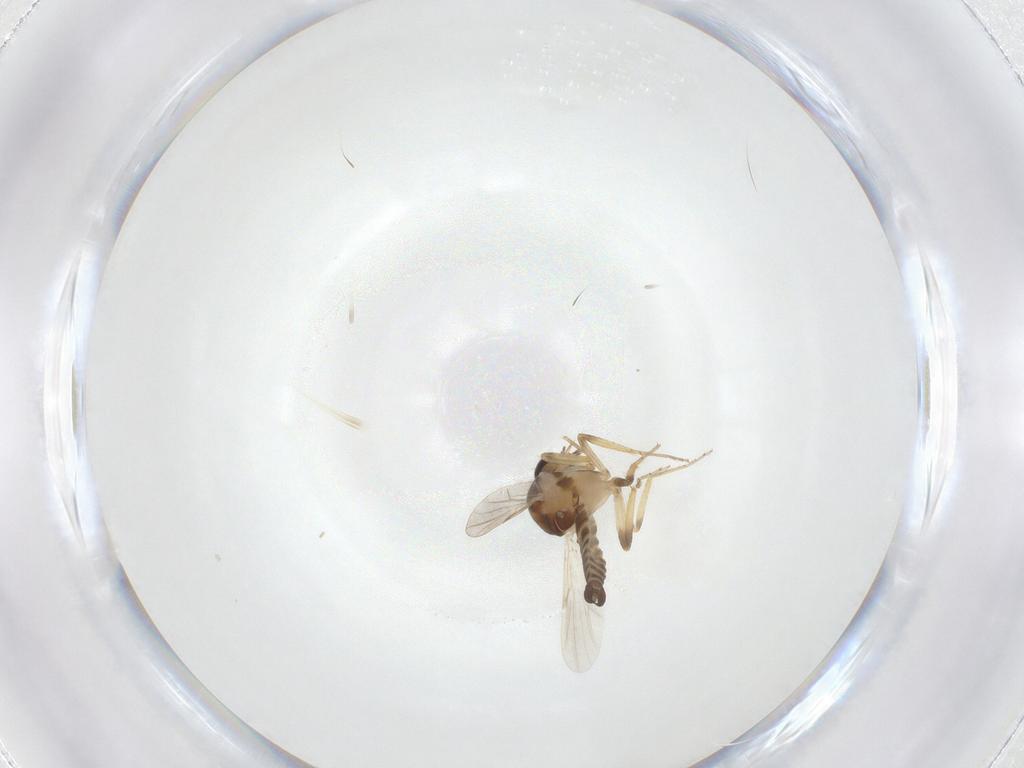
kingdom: Animalia
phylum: Arthropoda
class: Insecta
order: Diptera
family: Ceratopogonidae
